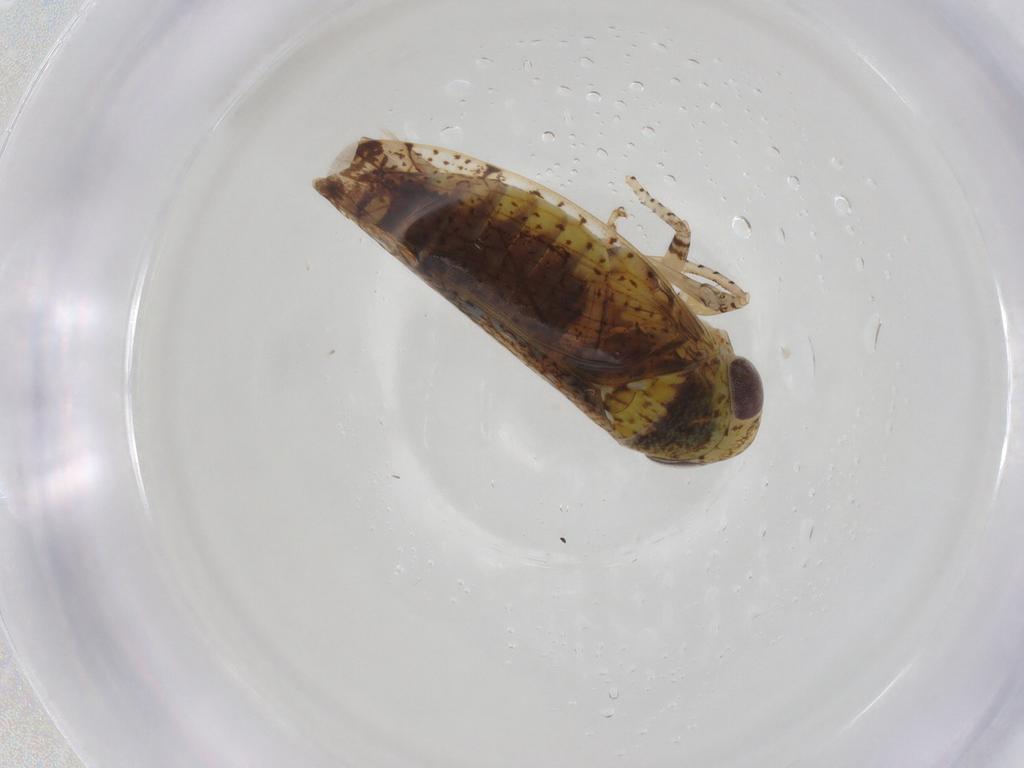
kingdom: Animalia
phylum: Arthropoda
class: Insecta
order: Hemiptera
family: Cicadellidae
